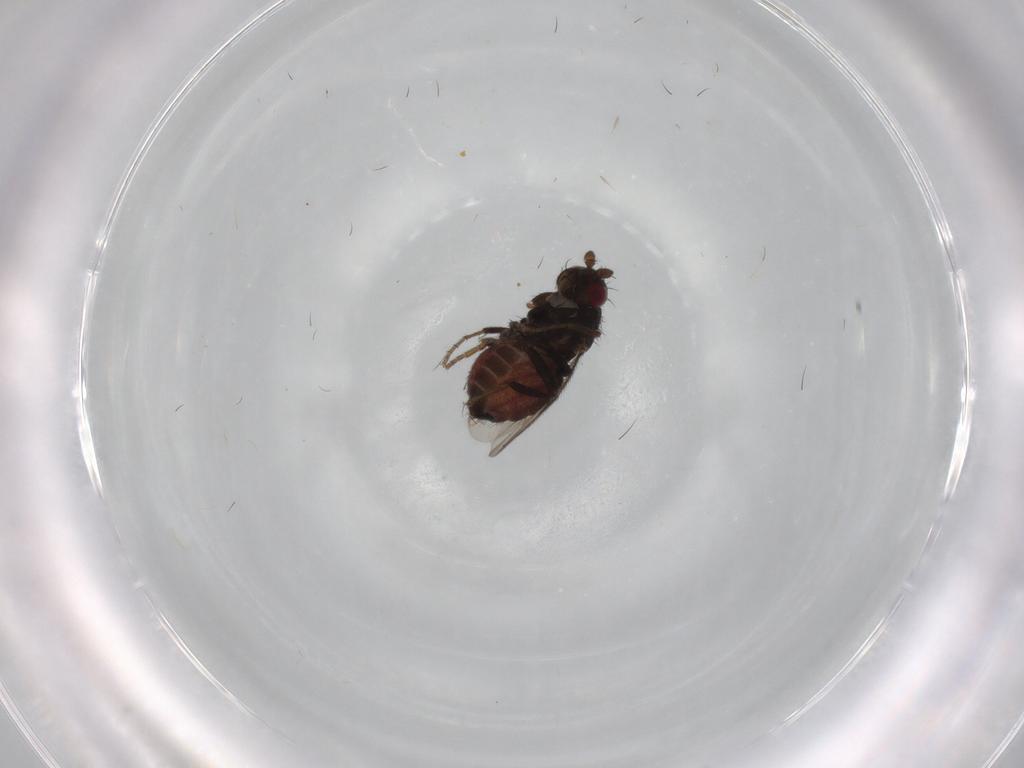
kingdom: Animalia
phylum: Arthropoda
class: Insecta
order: Diptera
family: Sphaeroceridae
